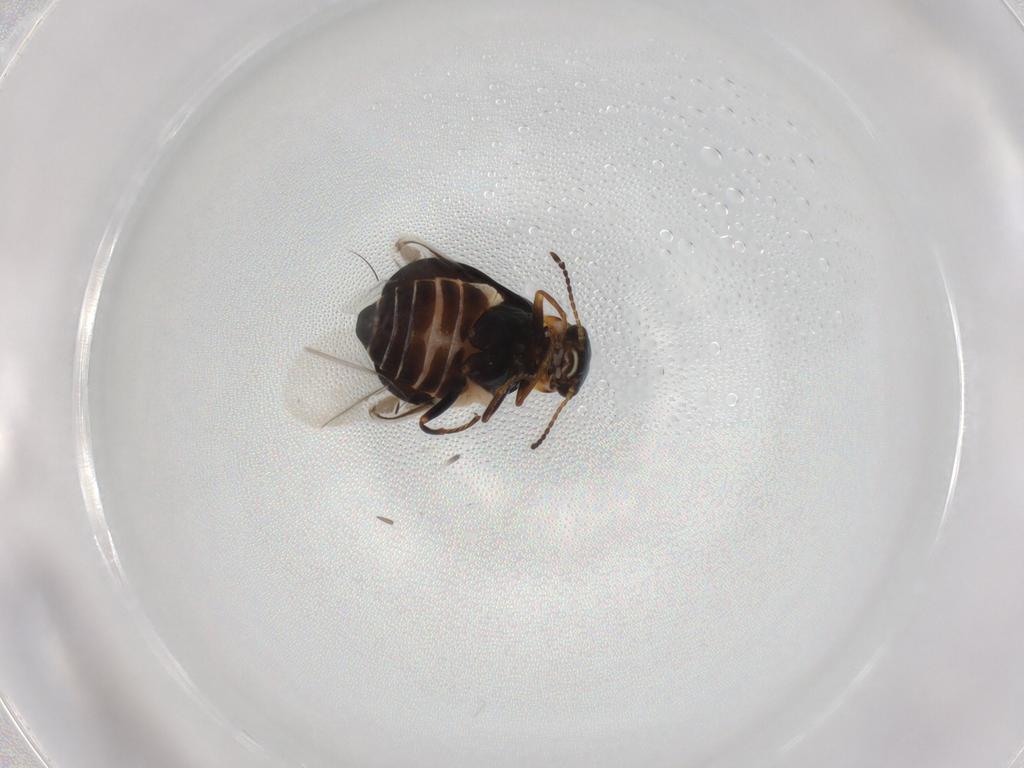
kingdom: Animalia
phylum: Arthropoda
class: Insecta
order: Coleoptera
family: Melyridae
